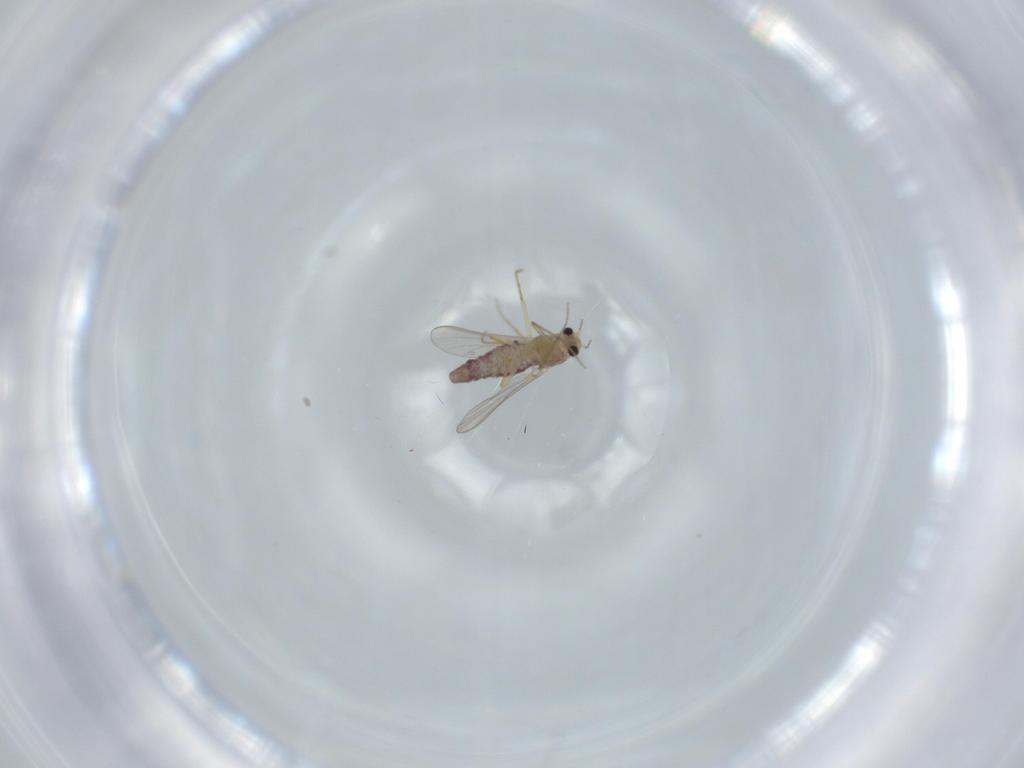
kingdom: Animalia
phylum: Arthropoda
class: Insecta
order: Diptera
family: Chironomidae
